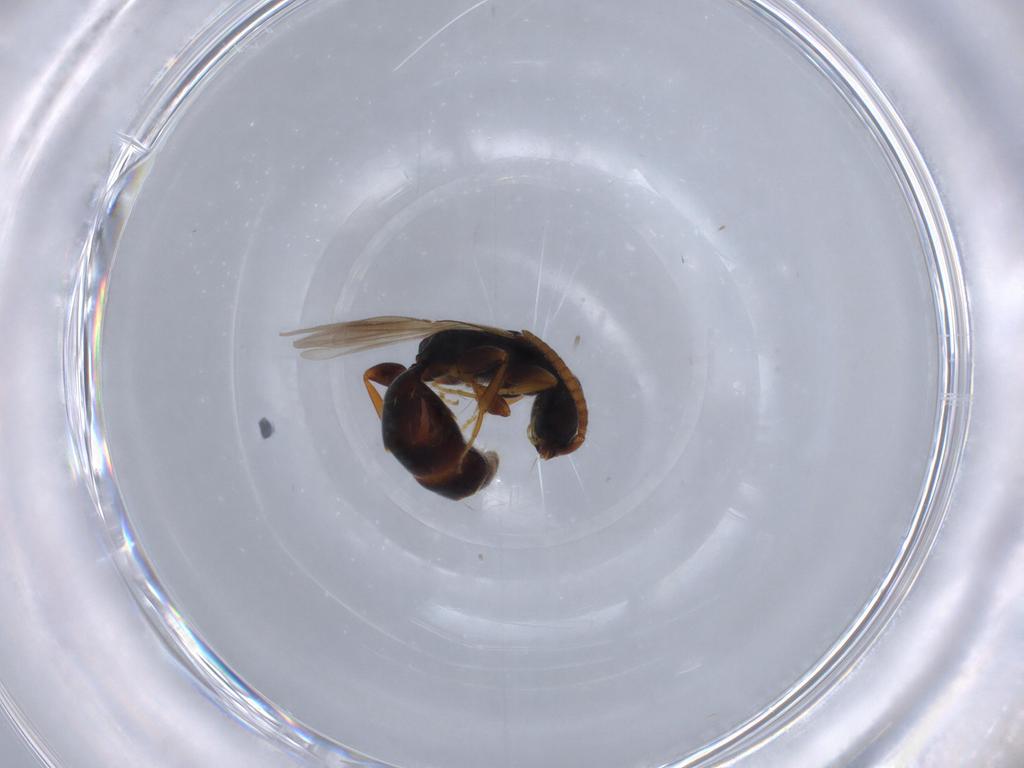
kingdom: Animalia
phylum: Arthropoda
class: Insecta
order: Hymenoptera
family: Bethylidae
